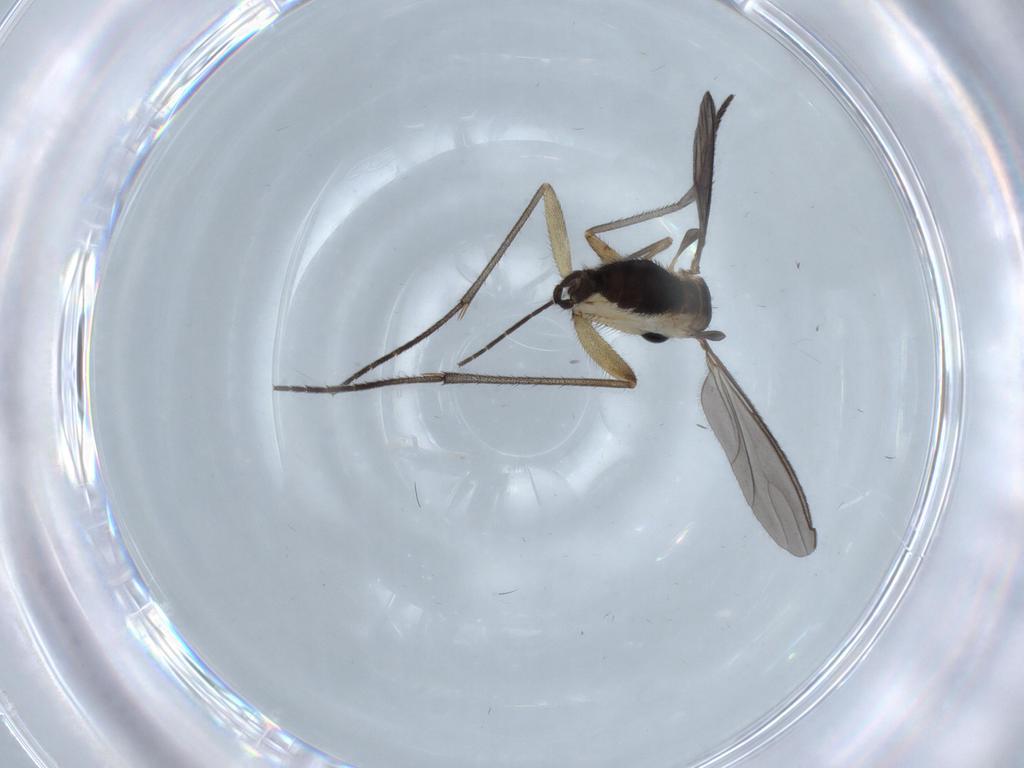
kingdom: Animalia
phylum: Arthropoda
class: Insecta
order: Diptera
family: Sciaridae
